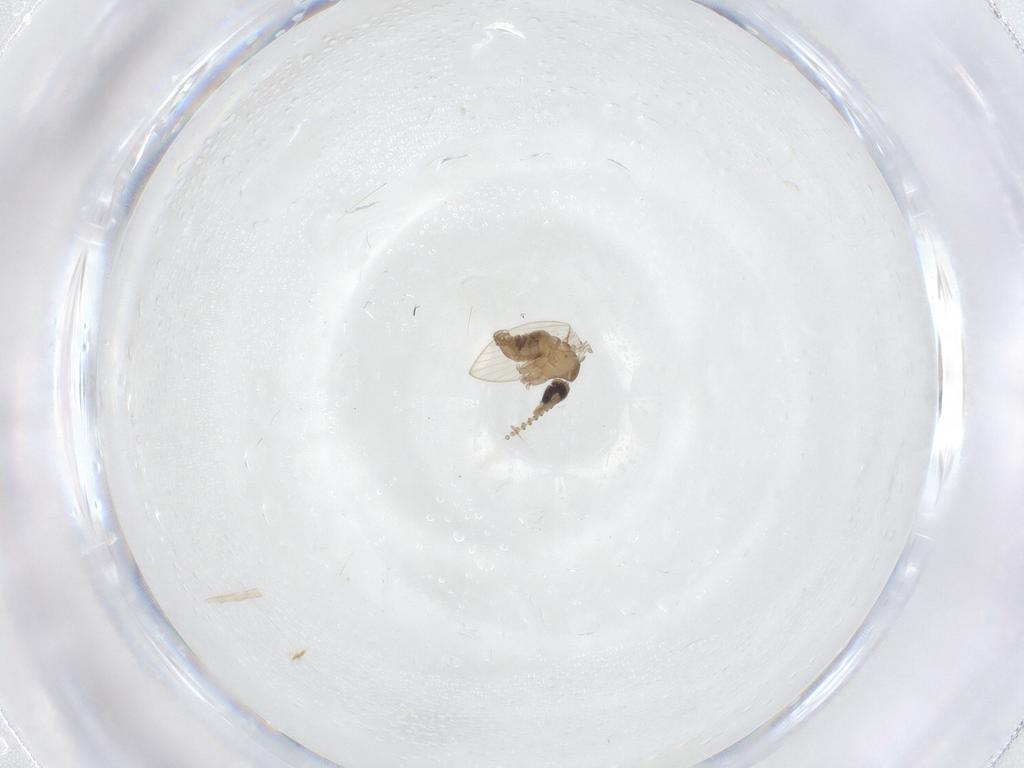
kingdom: Animalia
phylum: Arthropoda
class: Insecta
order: Diptera
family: Psychodidae
